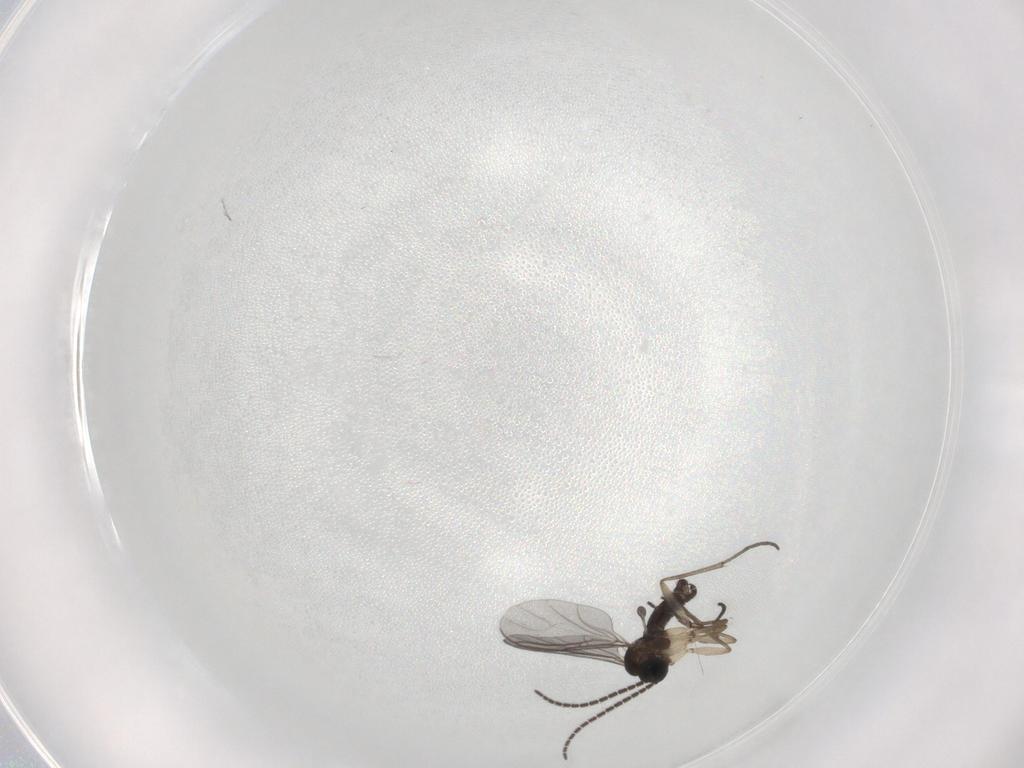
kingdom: Animalia
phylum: Arthropoda
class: Insecta
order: Diptera
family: Sciaridae
